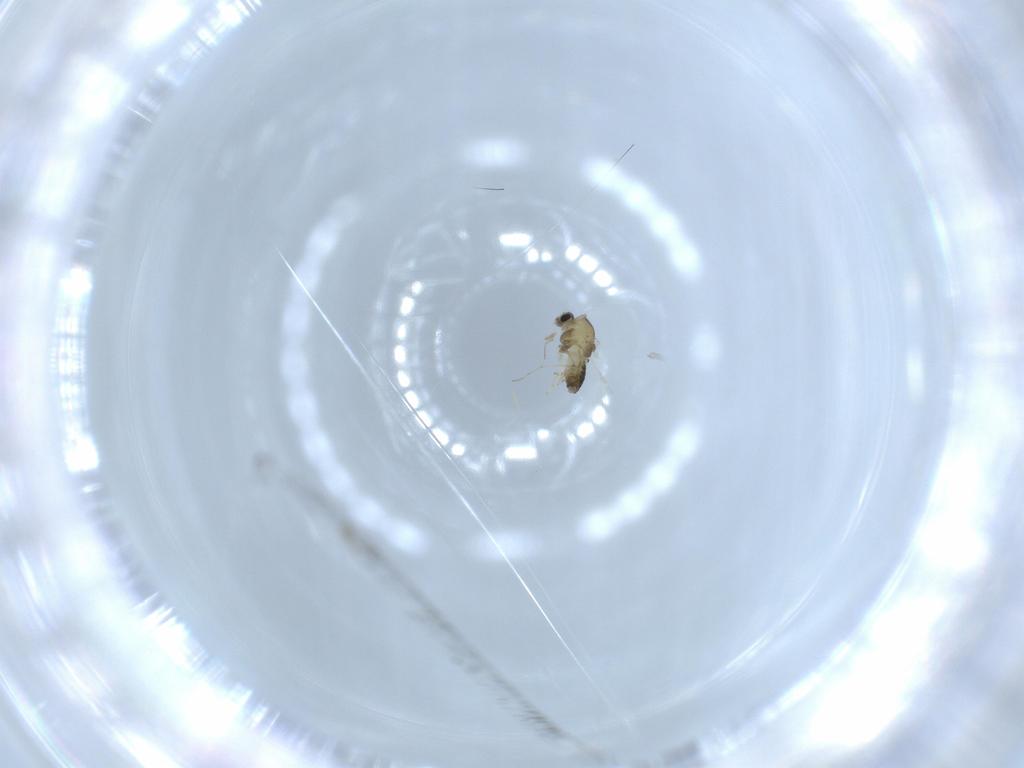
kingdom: Animalia
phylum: Arthropoda
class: Insecta
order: Diptera
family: Chironomidae
